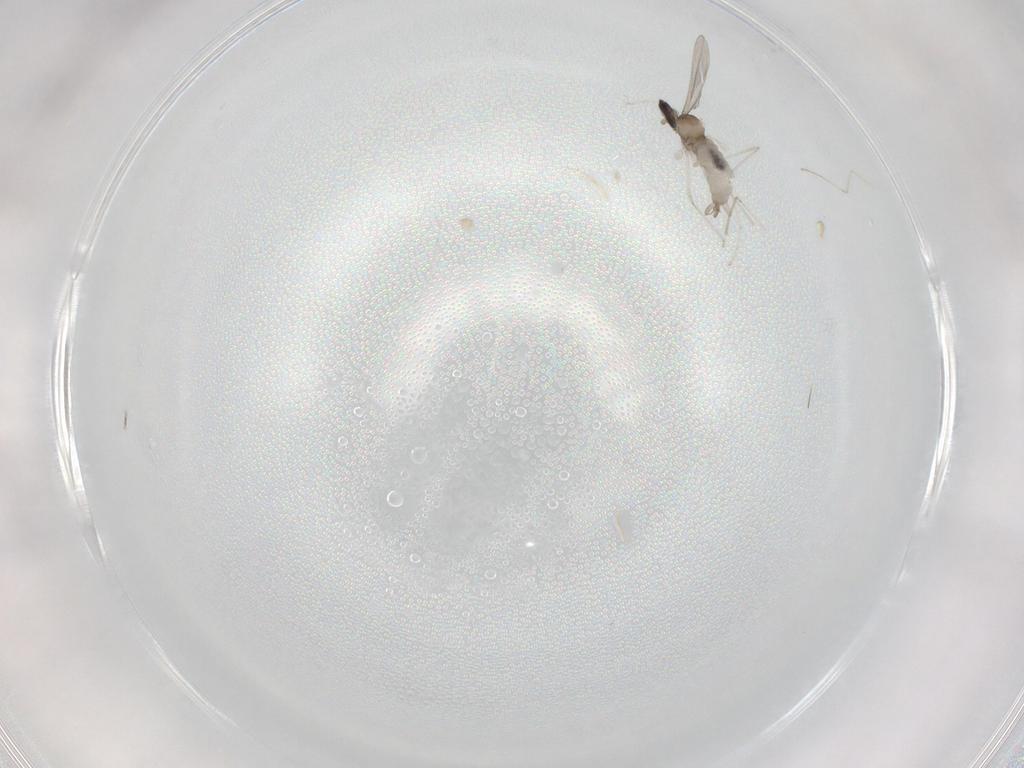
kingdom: Animalia
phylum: Arthropoda
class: Insecta
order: Diptera
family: Cecidomyiidae
